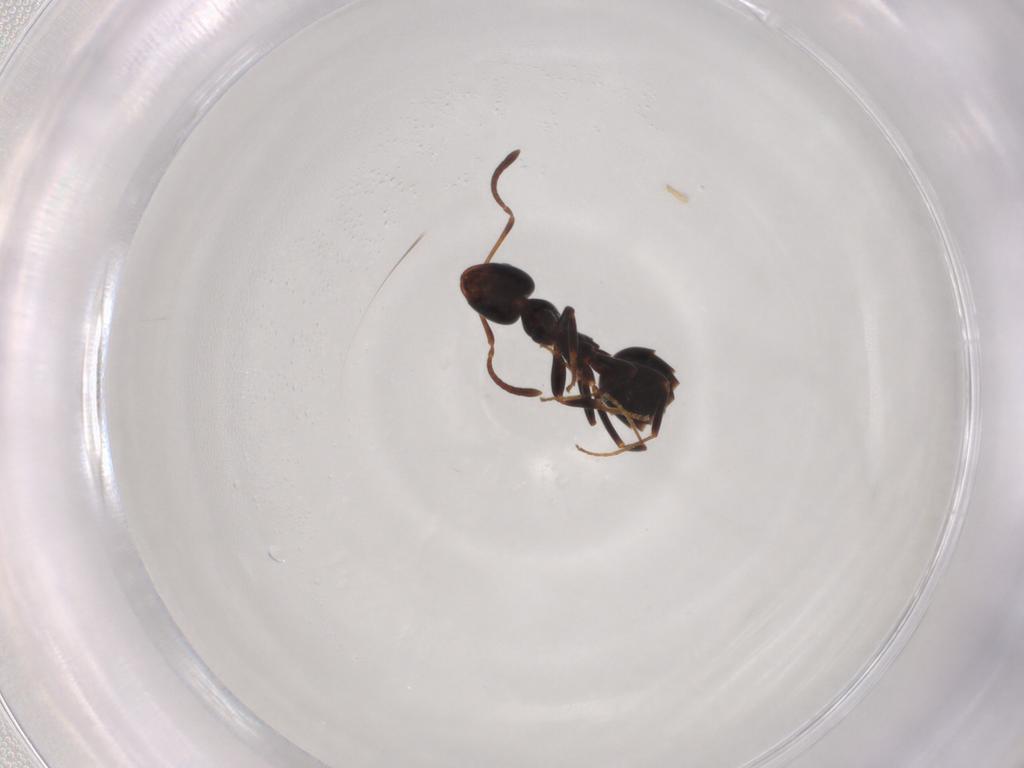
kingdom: Animalia
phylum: Arthropoda
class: Insecta
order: Hymenoptera
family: Formicidae
